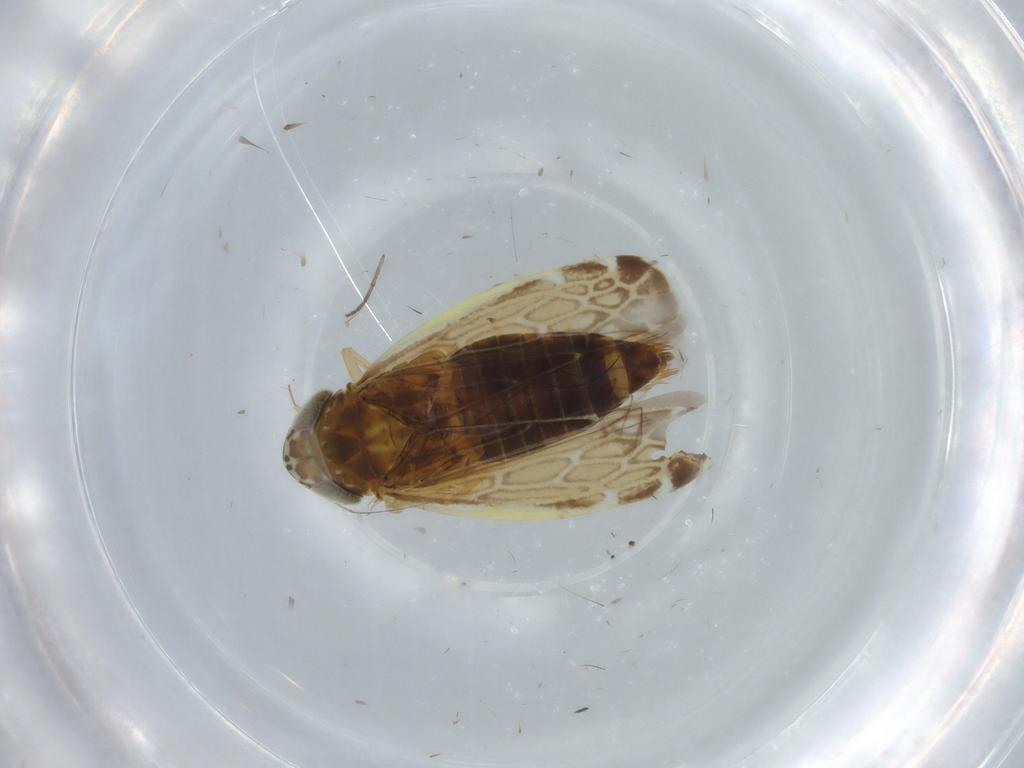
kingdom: Animalia
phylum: Arthropoda
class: Insecta
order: Hemiptera
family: Cicadellidae
